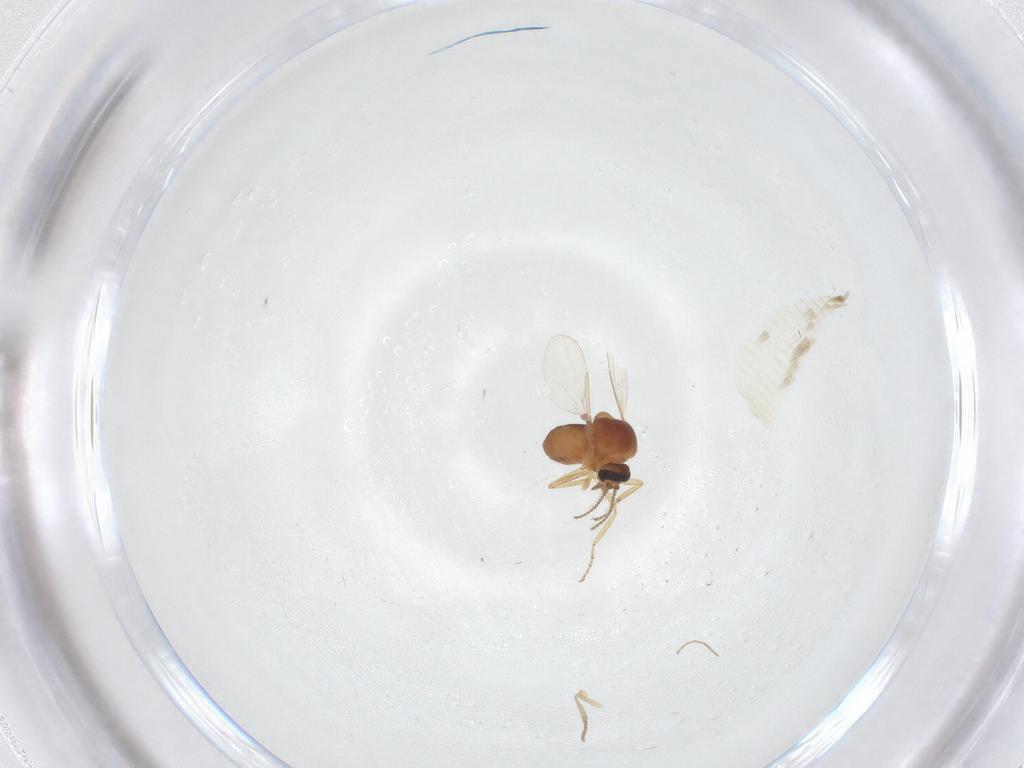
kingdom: Animalia
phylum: Arthropoda
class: Insecta
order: Diptera
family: Ceratopogonidae
